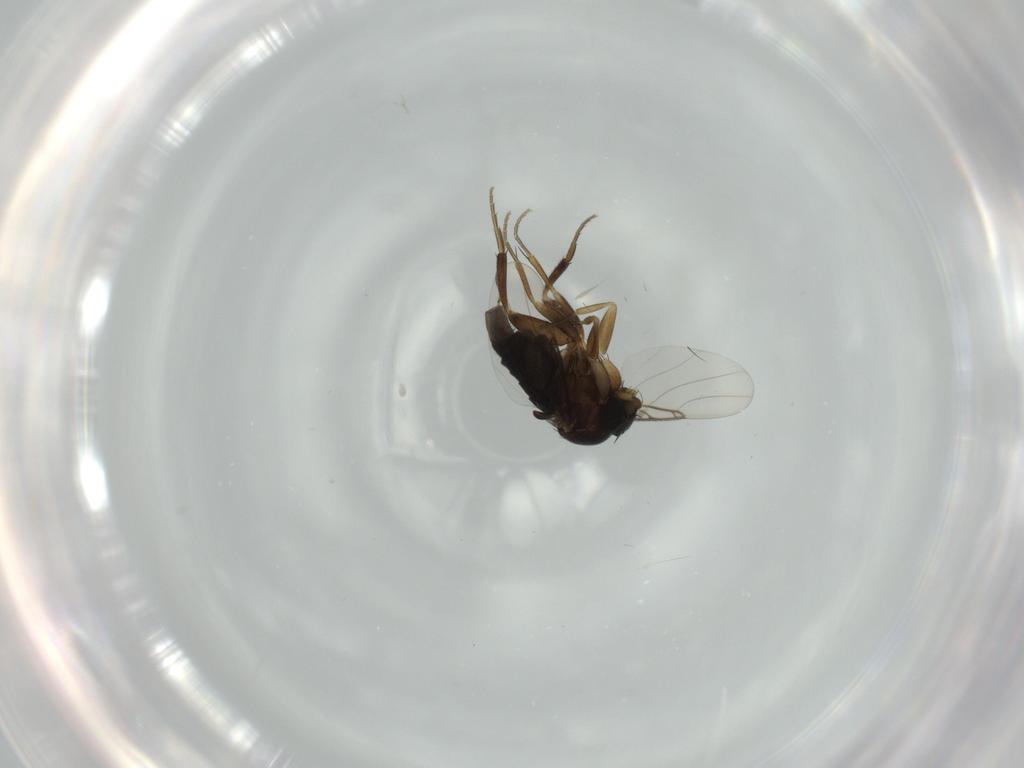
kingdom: Animalia
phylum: Arthropoda
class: Insecta
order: Diptera
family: Phoridae
